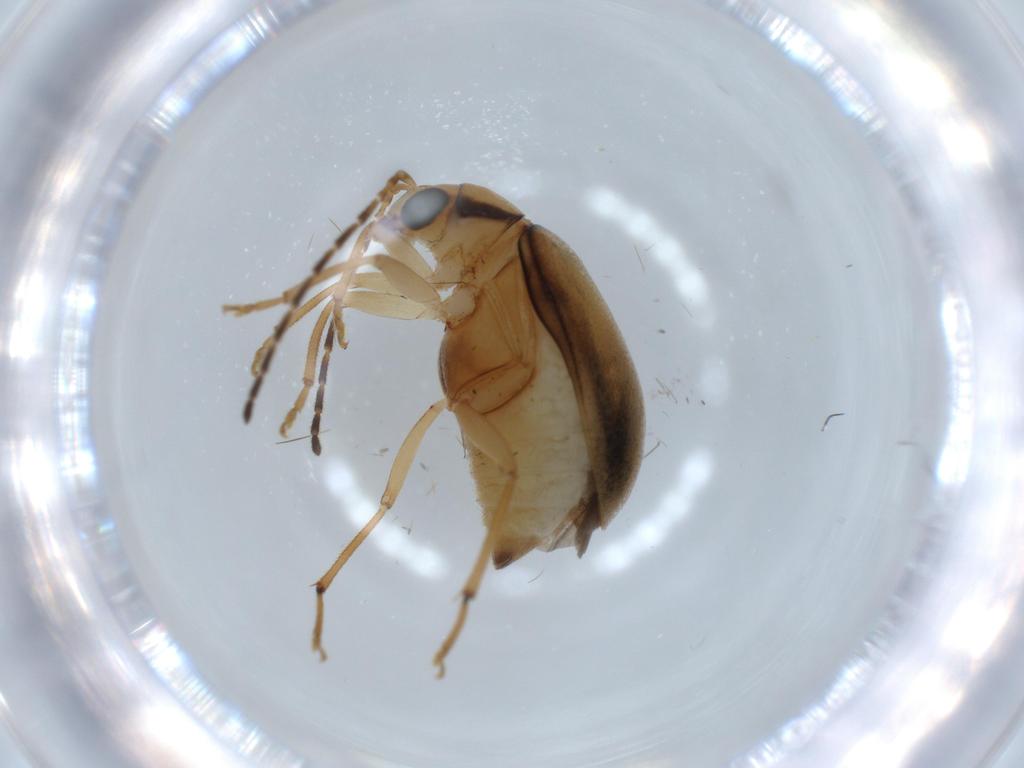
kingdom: Animalia
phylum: Arthropoda
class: Insecta
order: Coleoptera
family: Chrysomelidae
